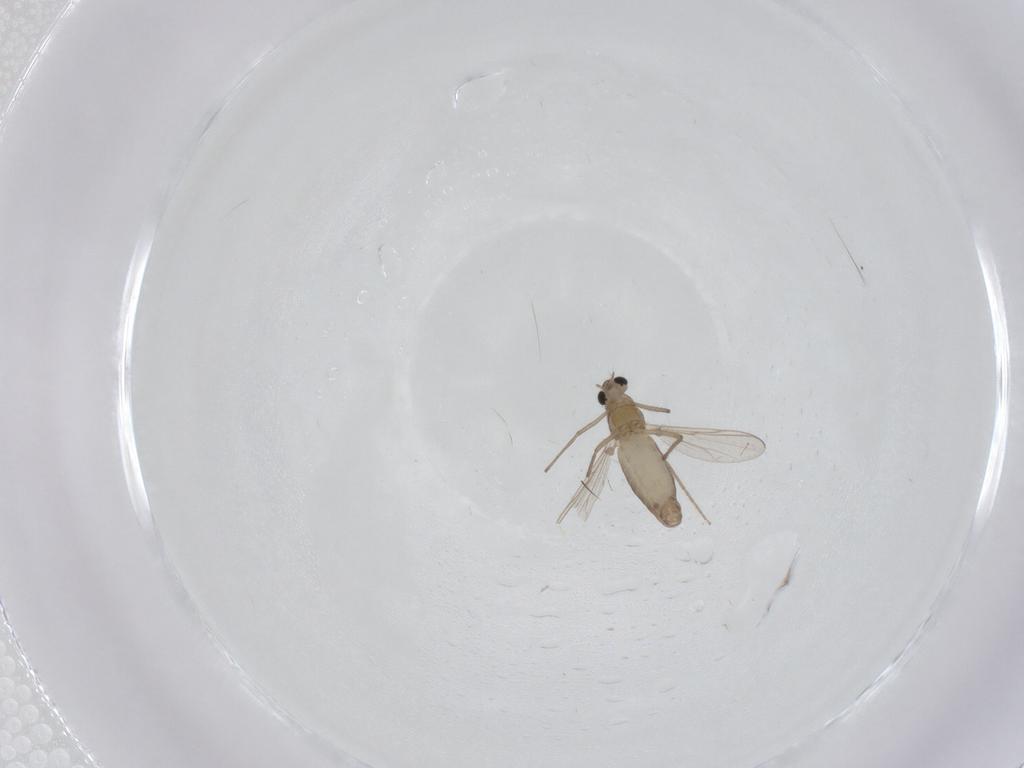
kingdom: Animalia
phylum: Arthropoda
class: Insecta
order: Diptera
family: Chironomidae
